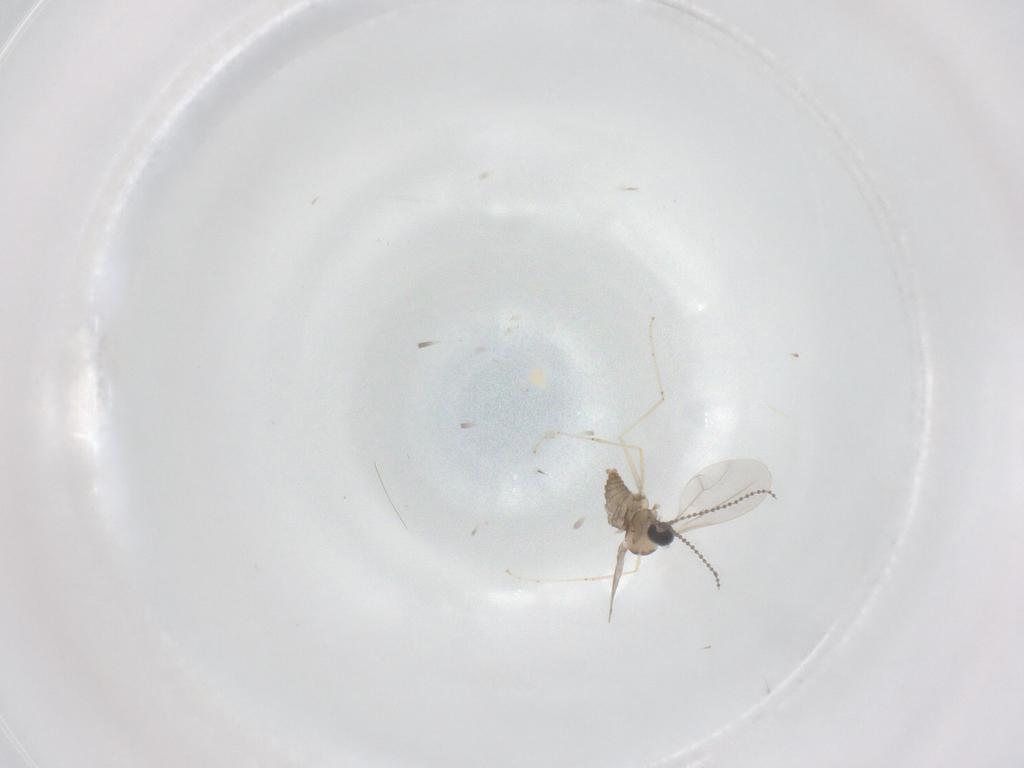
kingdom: Animalia
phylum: Arthropoda
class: Insecta
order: Diptera
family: Cecidomyiidae
